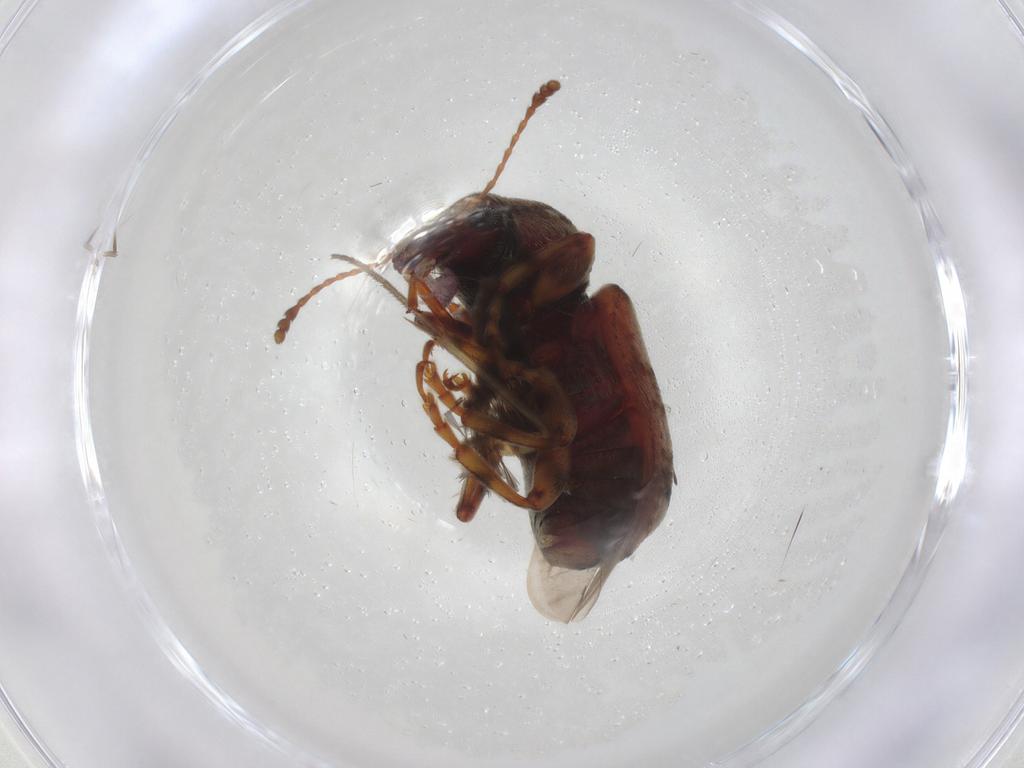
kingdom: Animalia
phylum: Arthropoda
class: Insecta
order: Coleoptera
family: Anthribidae
